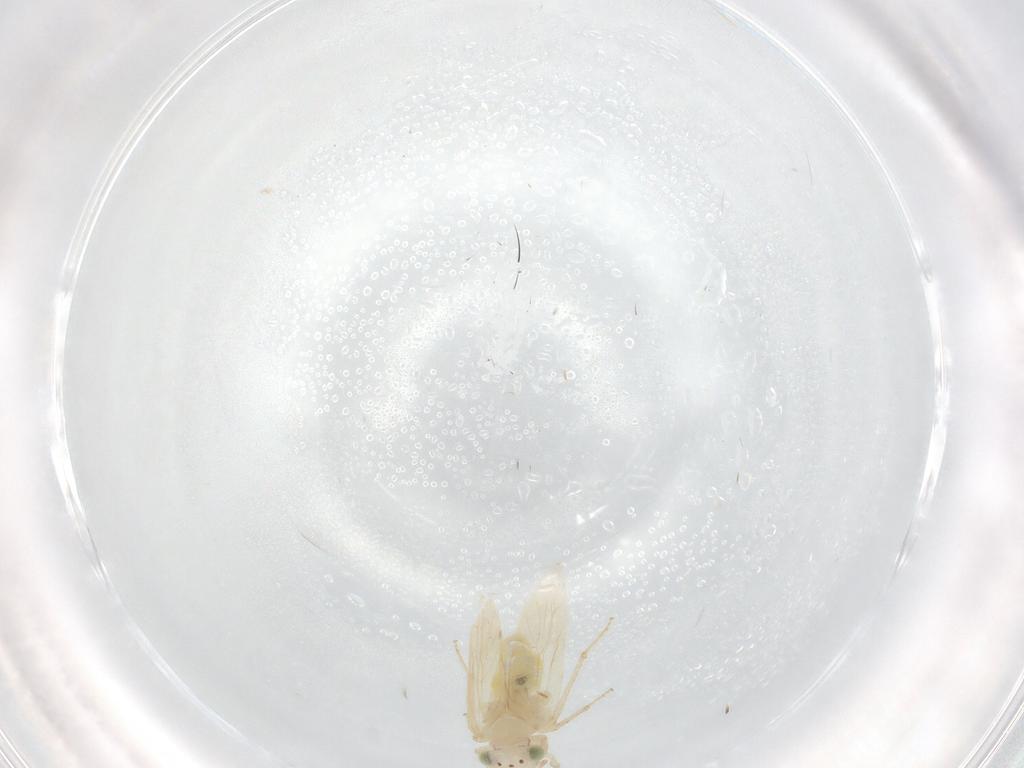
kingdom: Animalia
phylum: Arthropoda
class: Insecta
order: Psocodea
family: Lepidopsocidae
